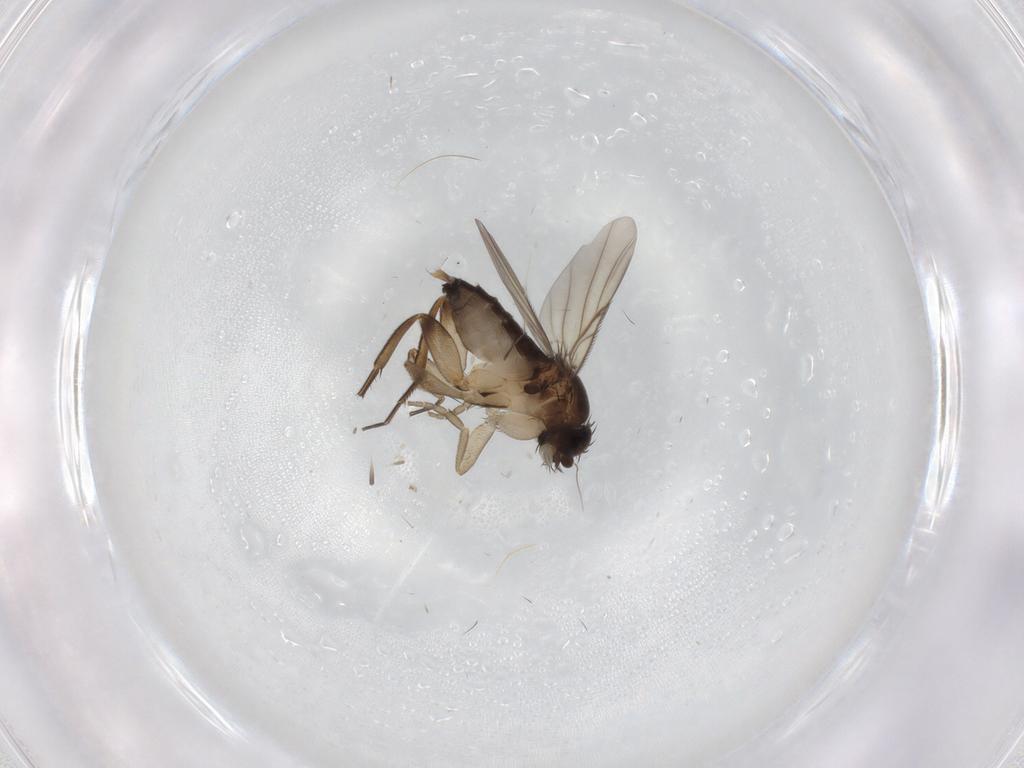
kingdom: Animalia
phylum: Arthropoda
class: Insecta
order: Diptera
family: Phoridae
